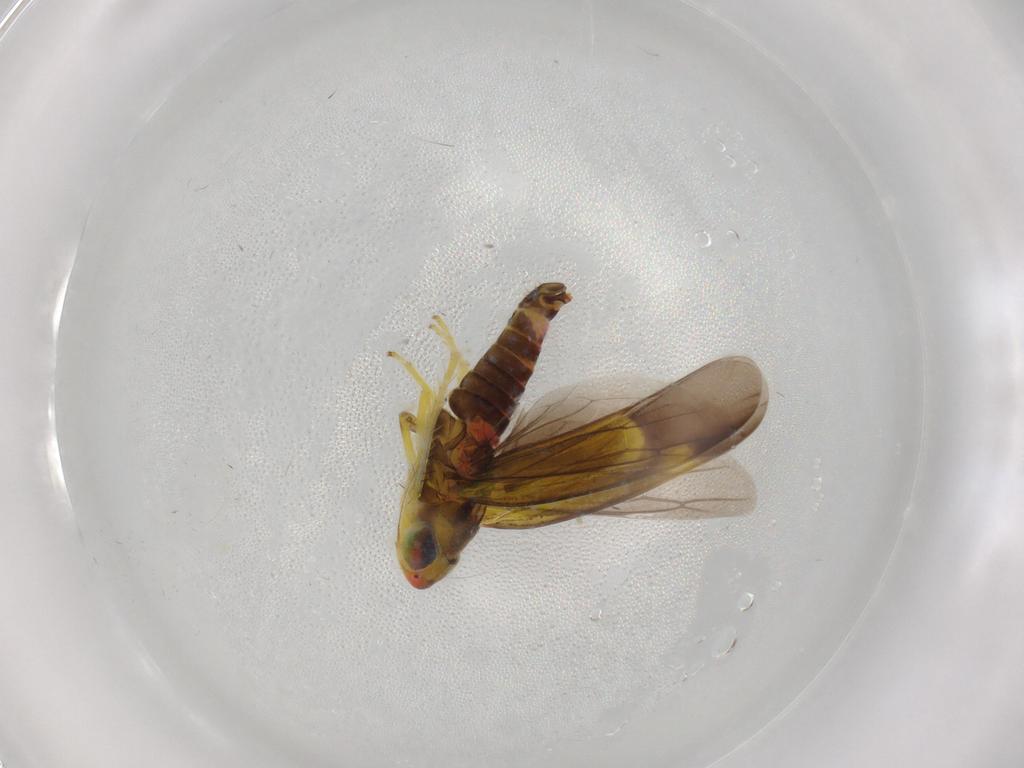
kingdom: Animalia
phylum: Arthropoda
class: Insecta
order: Hemiptera
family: Cicadellidae
